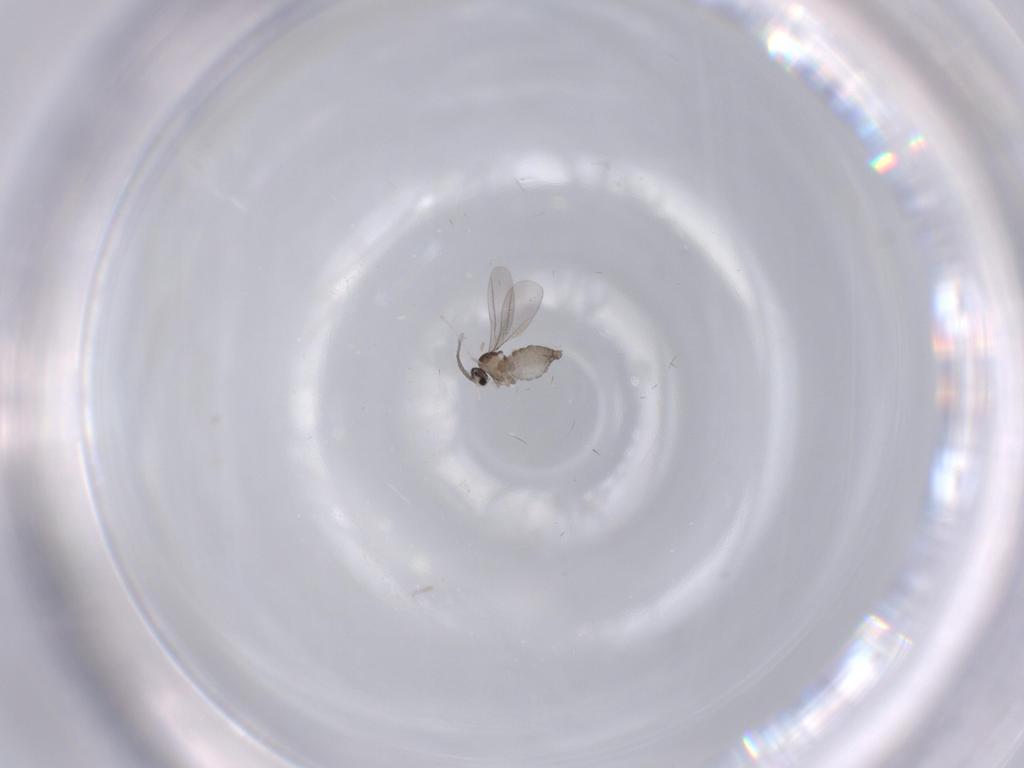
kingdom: Animalia
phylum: Arthropoda
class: Insecta
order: Diptera
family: Cecidomyiidae
